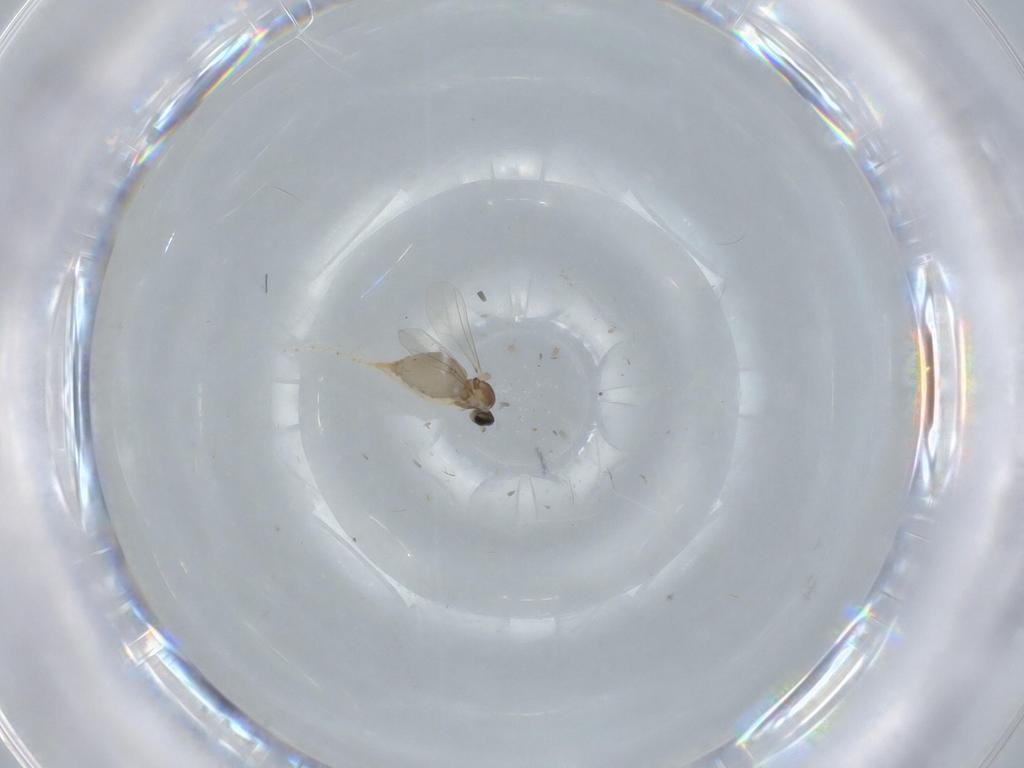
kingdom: Animalia
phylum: Arthropoda
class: Insecta
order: Diptera
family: Cecidomyiidae
